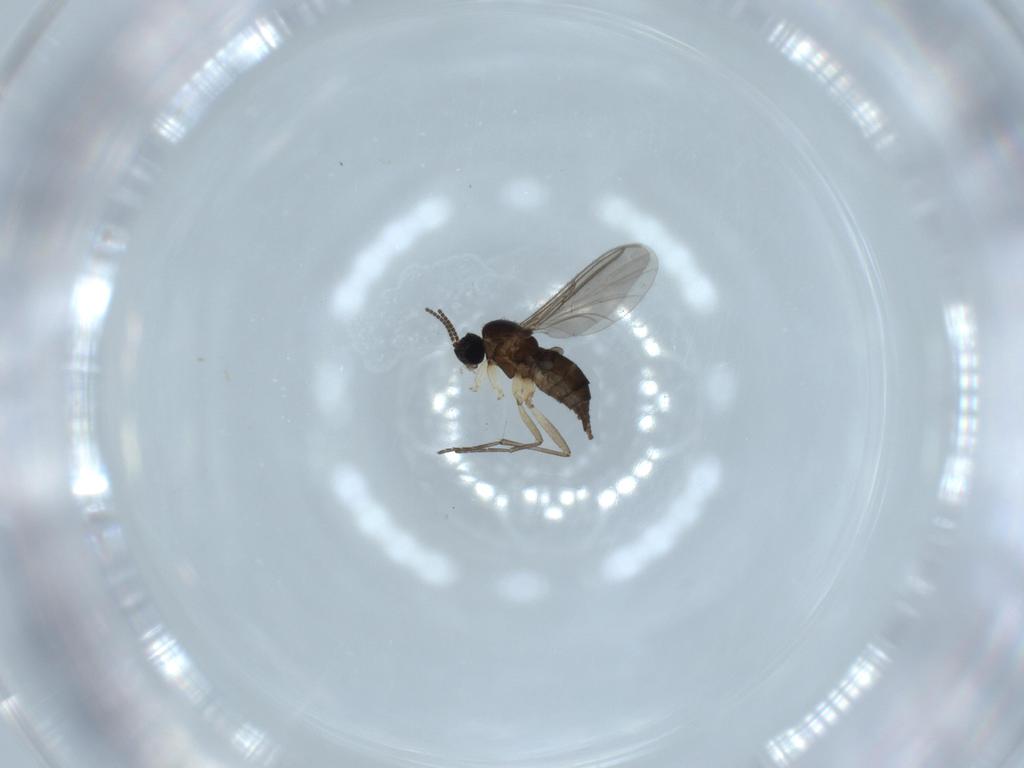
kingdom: Animalia
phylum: Arthropoda
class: Insecta
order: Diptera
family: Sciaridae
